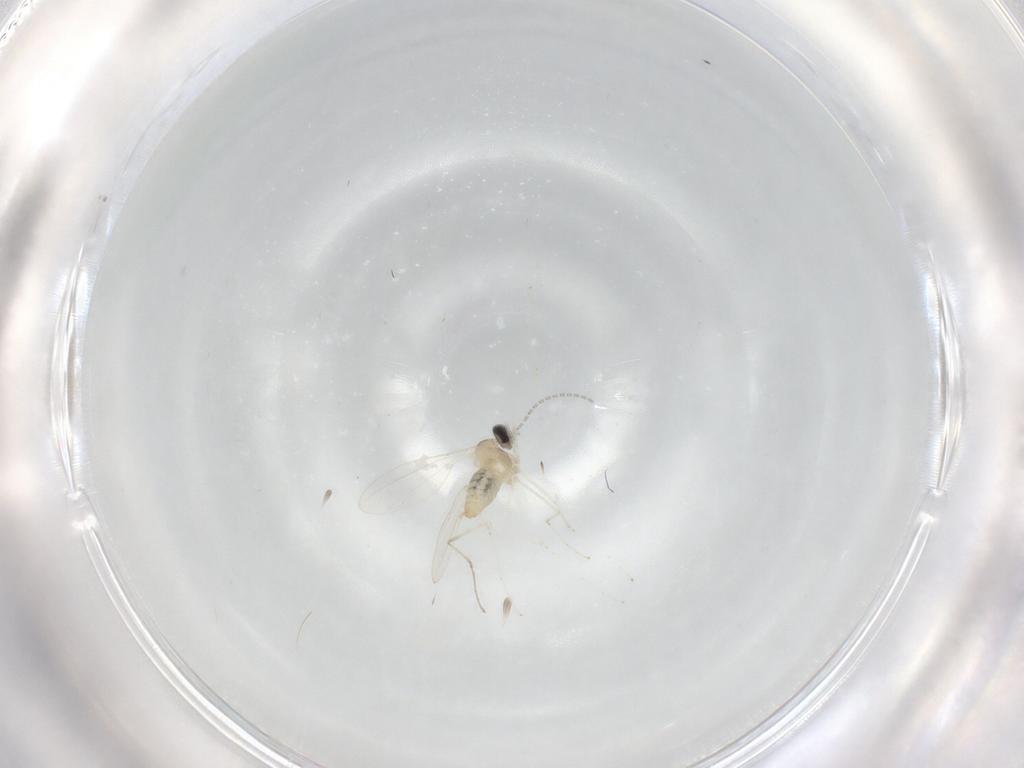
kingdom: Animalia
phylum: Arthropoda
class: Insecta
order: Diptera
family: Cecidomyiidae
